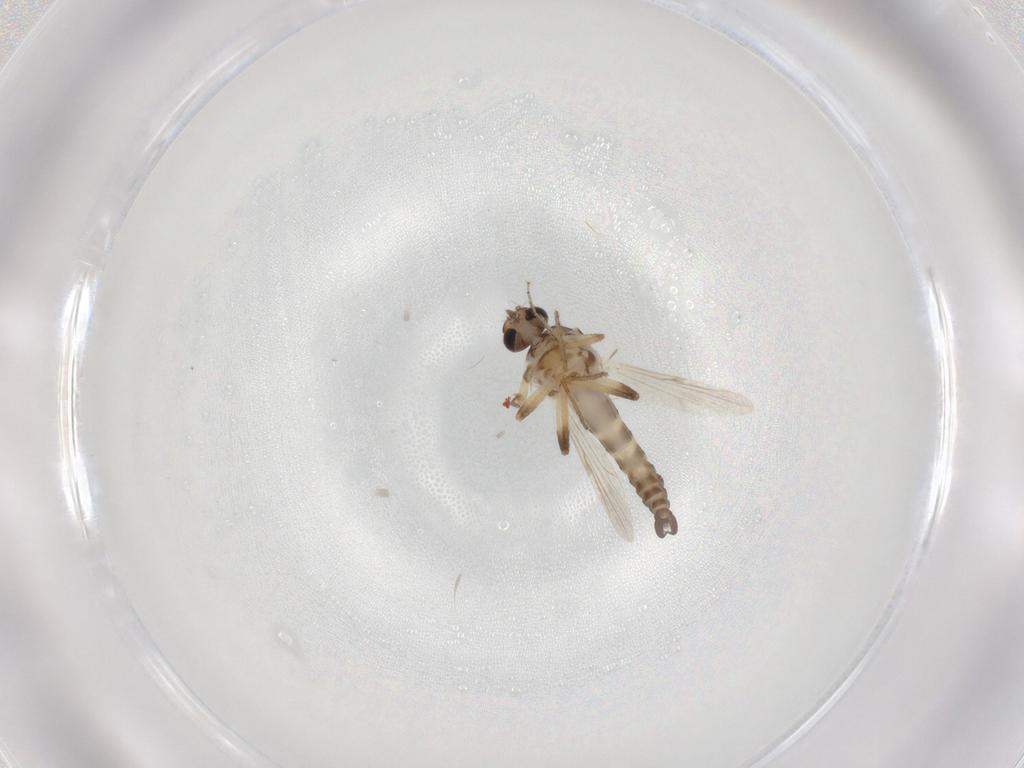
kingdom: Animalia
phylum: Arthropoda
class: Insecta
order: Diptera
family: Ceratopogonidae
